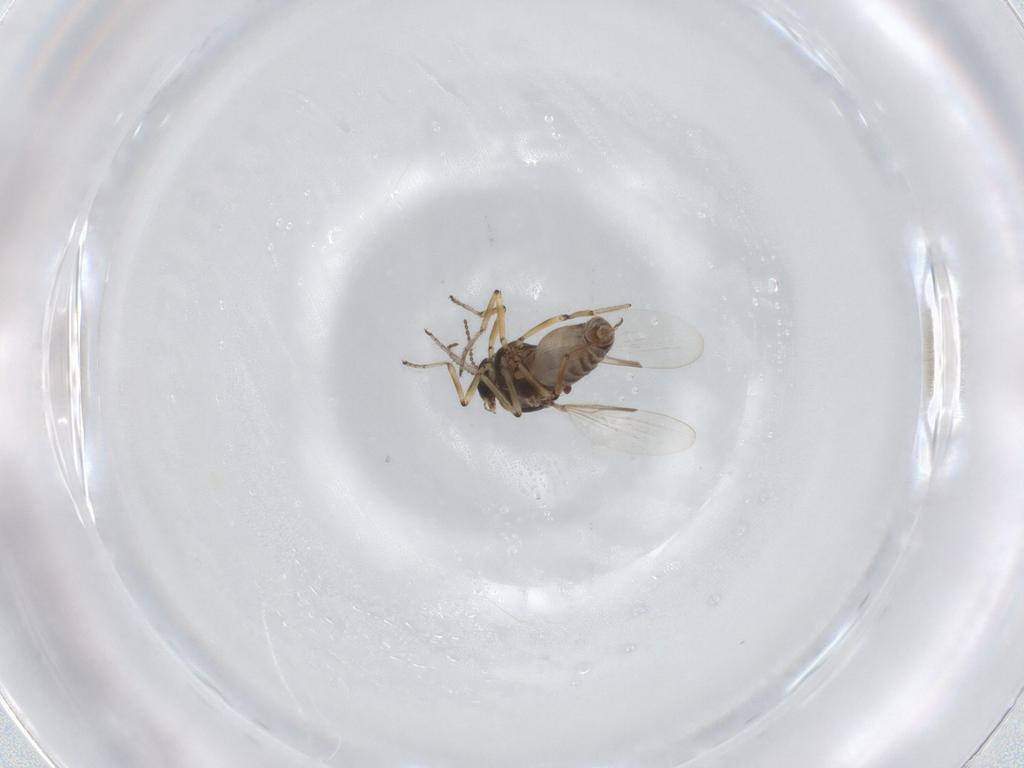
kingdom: Animalia
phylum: Arthropoda
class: Insecta
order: Diptera
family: Ceratopogonidae
